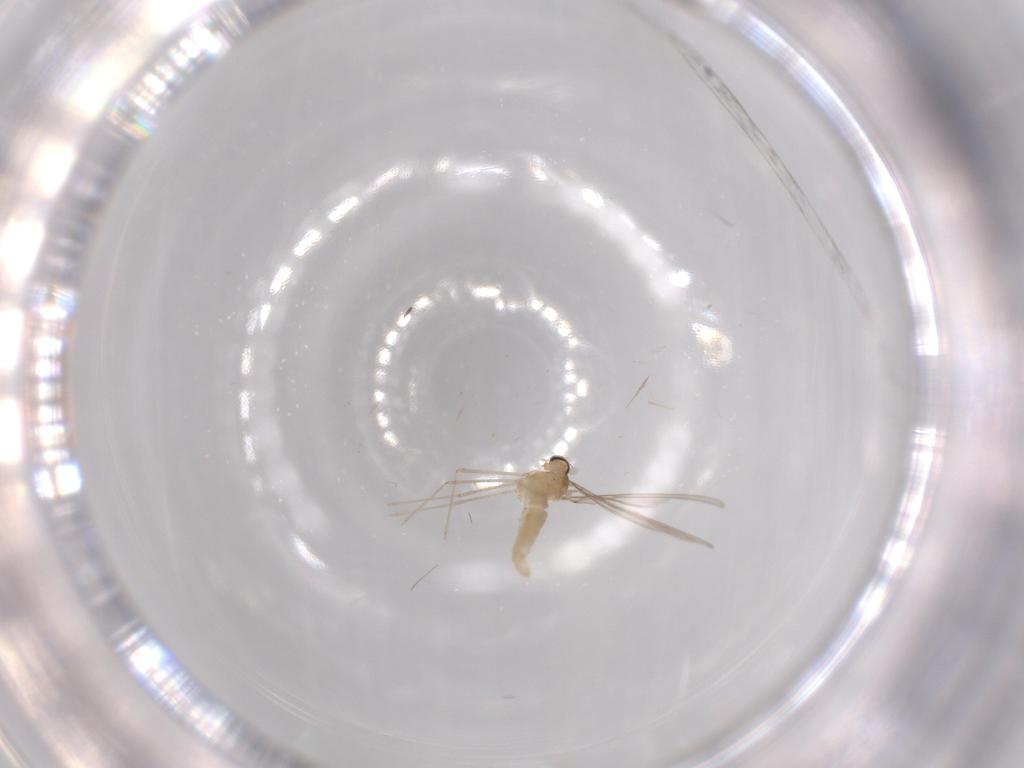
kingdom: Animalia
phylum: Arthropoda
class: Insecta
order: Diptera
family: Cecidomyiidae
